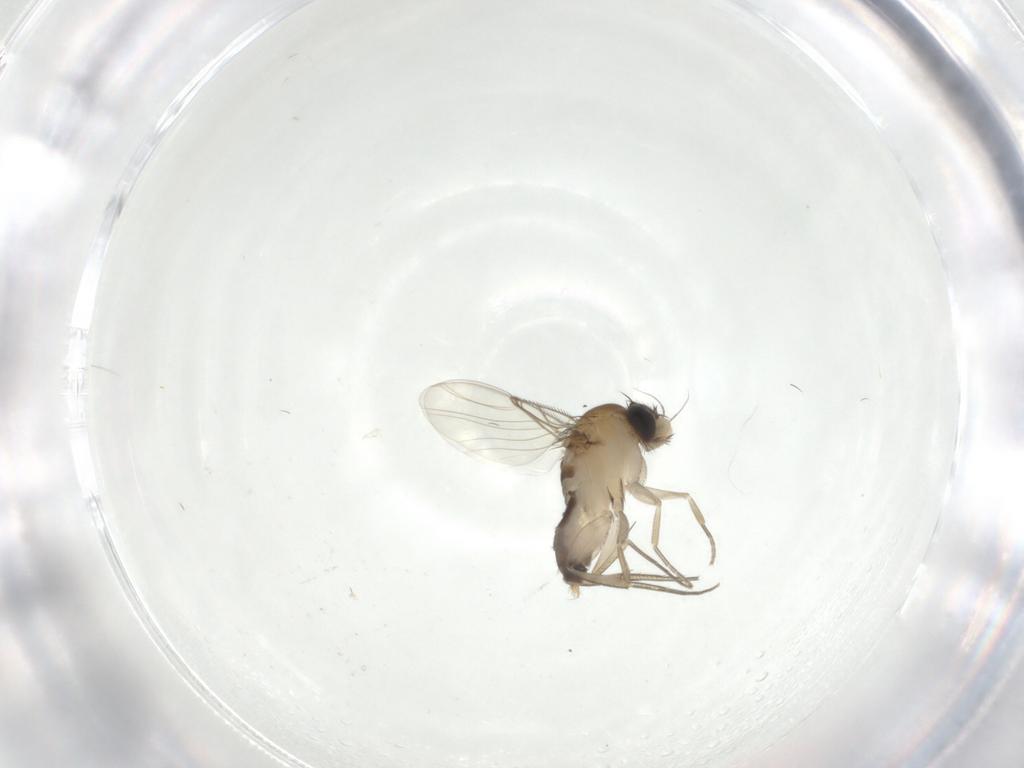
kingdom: Animalia
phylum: Arthropoda
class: Insecta
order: Diptera
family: Phoridae
